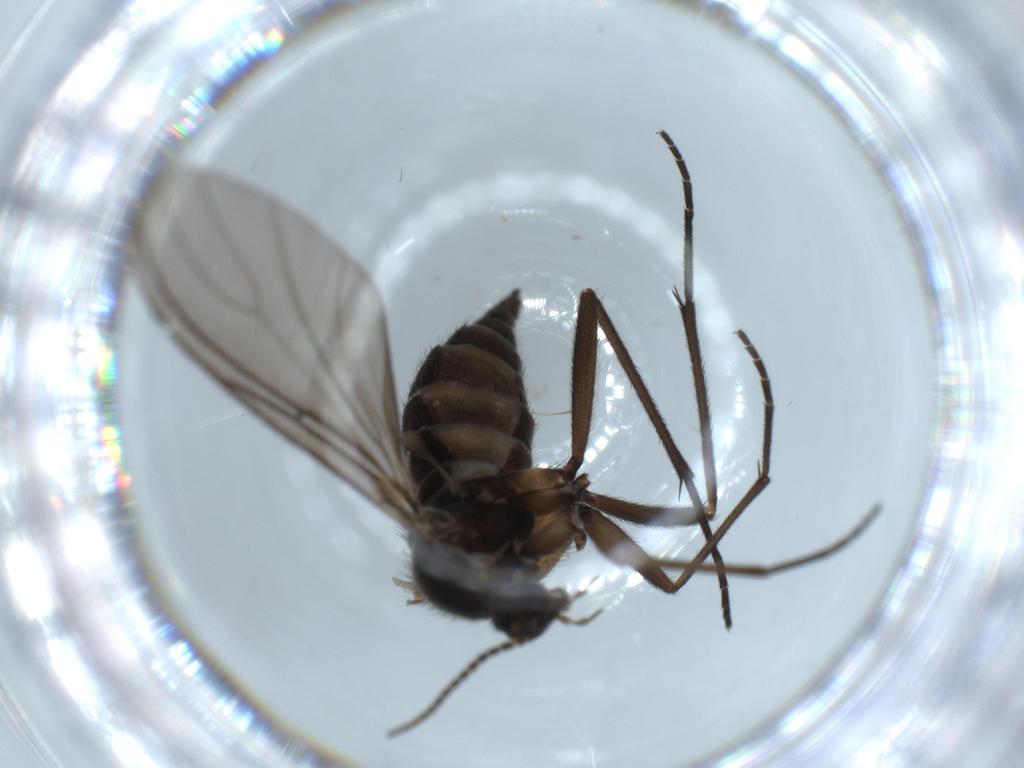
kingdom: Animalia
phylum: Arthropoda
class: Insecta
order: Diptera
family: Sciaridae
